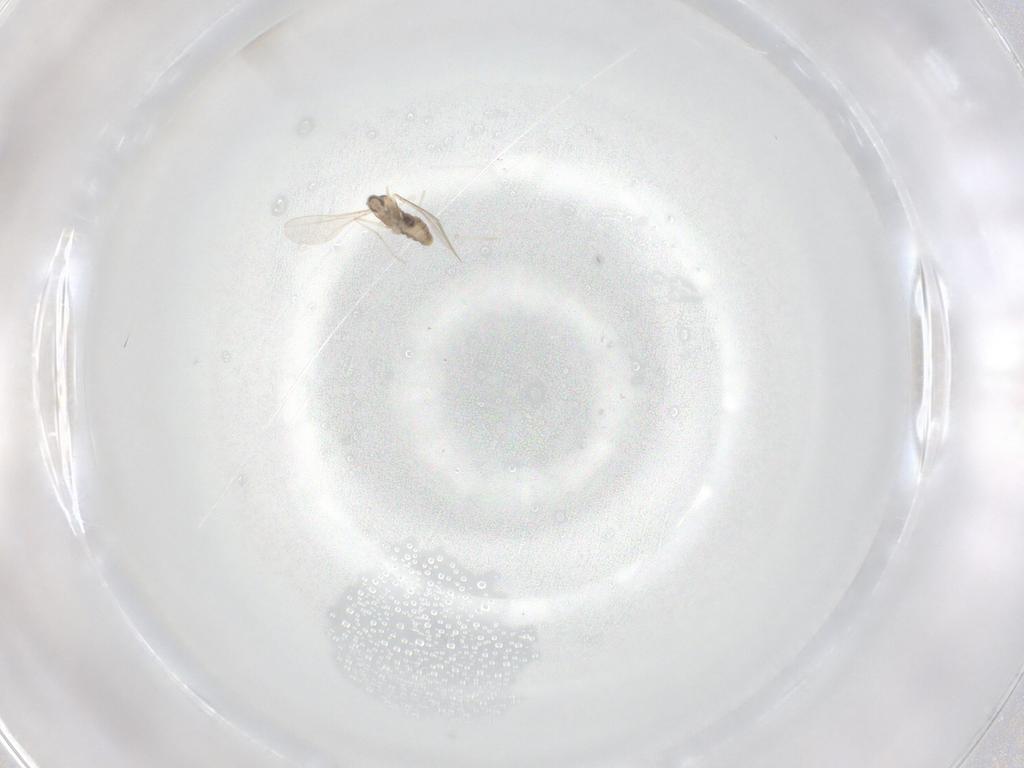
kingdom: Animalia
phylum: Arthropoda
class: Insecta
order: Diptera
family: Cecidomyiidae
